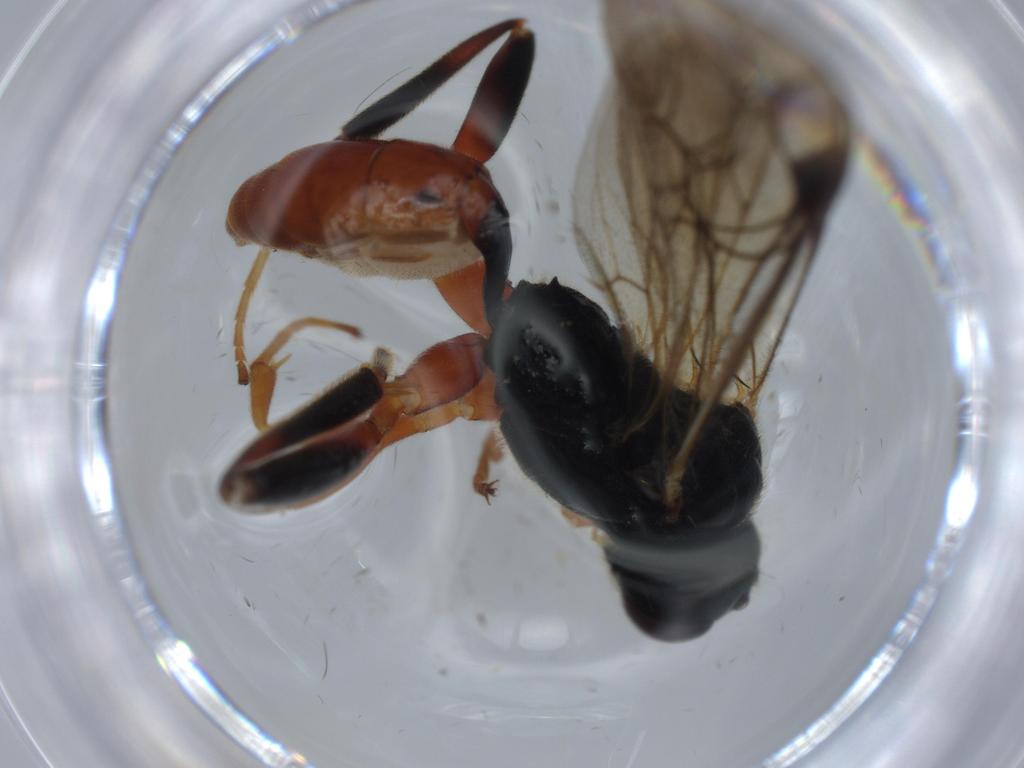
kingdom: Animalia
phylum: Arthropoda
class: Insecta
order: Hymenoptera
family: Ichneumonidae
